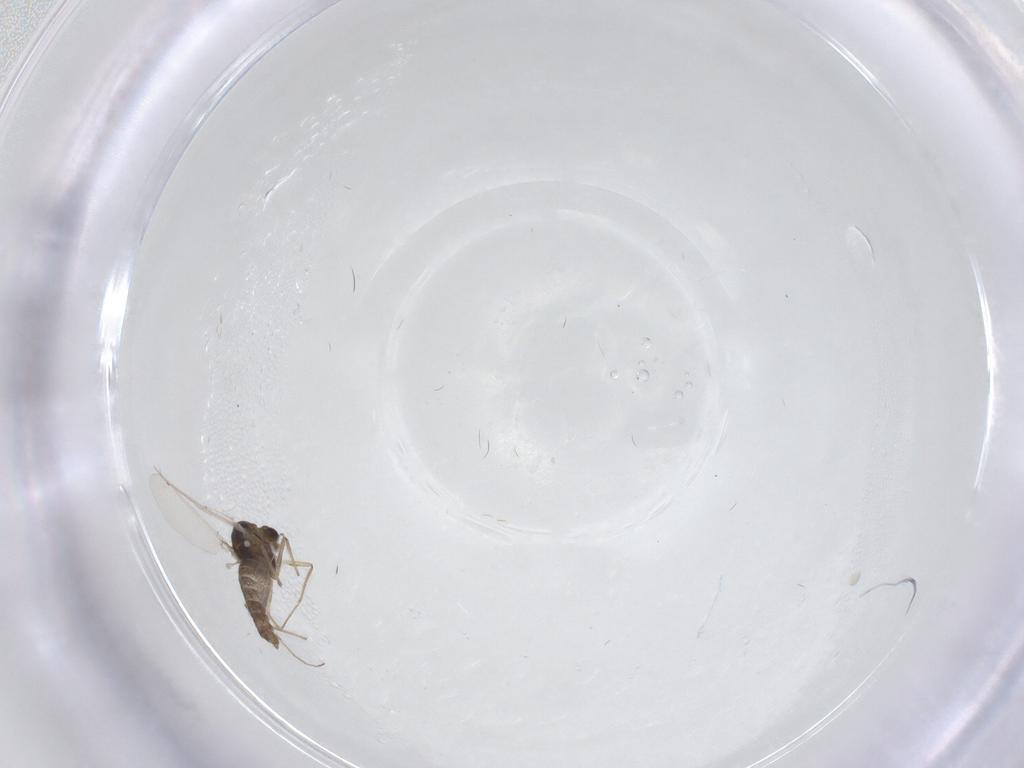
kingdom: Animalia
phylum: Arthropoda
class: Insecta
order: Diptera
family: Chironomidae
